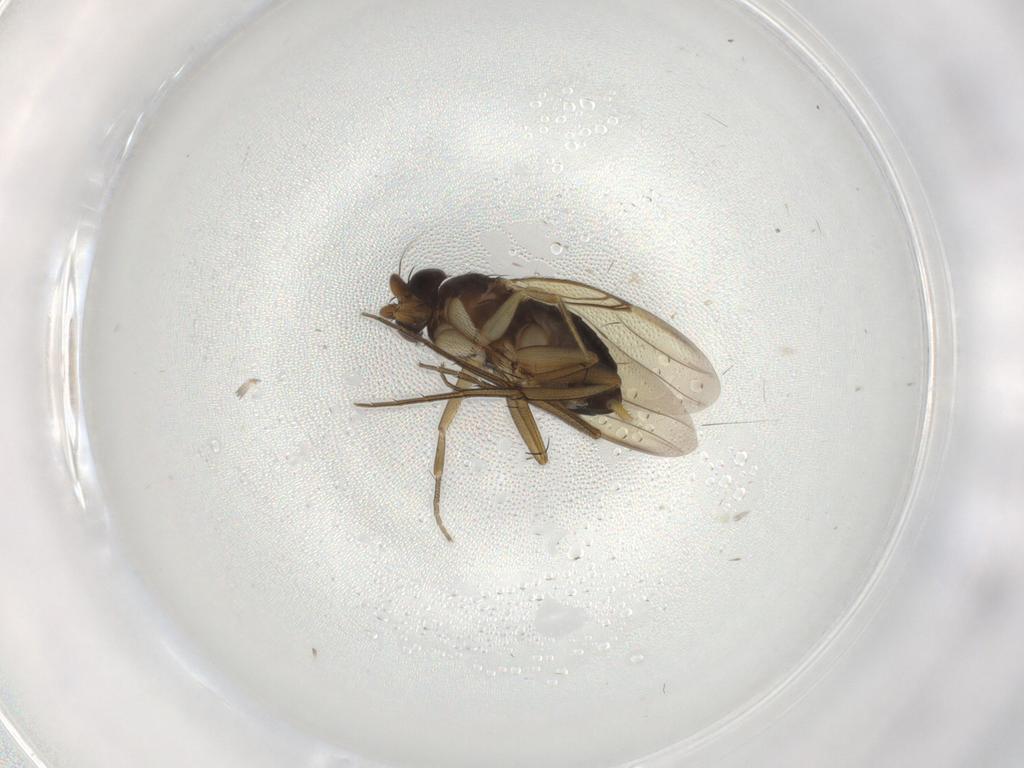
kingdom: Animalia
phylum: Arthropoda
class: Insecta
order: Diptera
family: Phoridae
